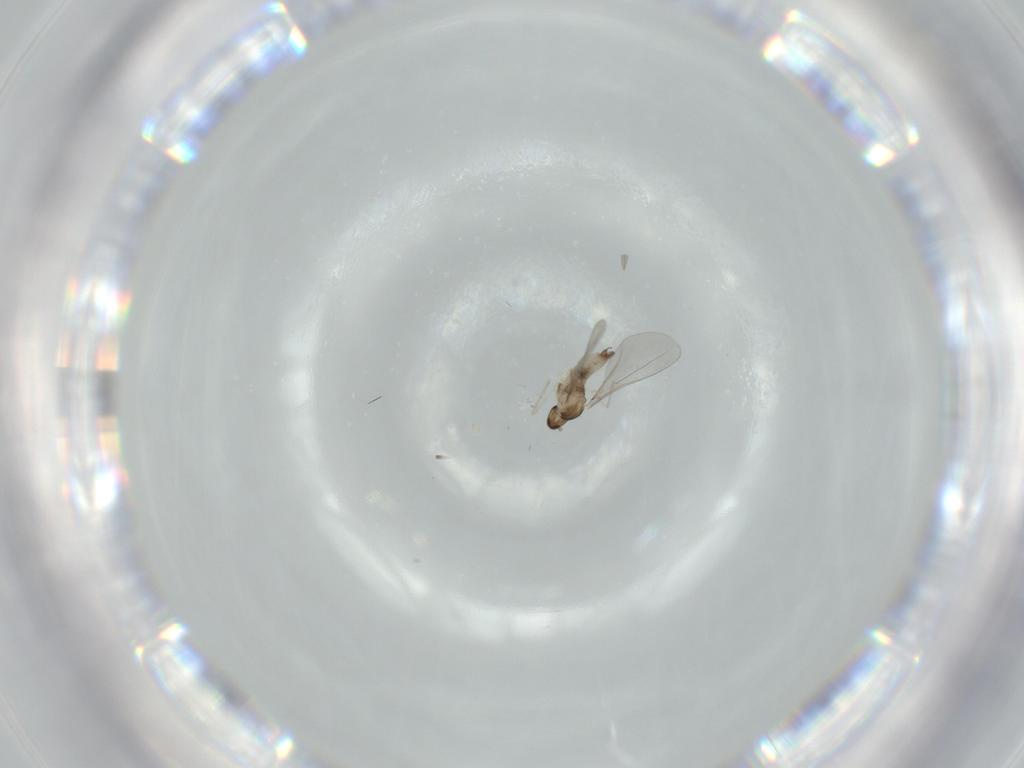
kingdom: Animalia
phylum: Arthropoda
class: Insecta
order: Diptera
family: Cecidomyiidae
